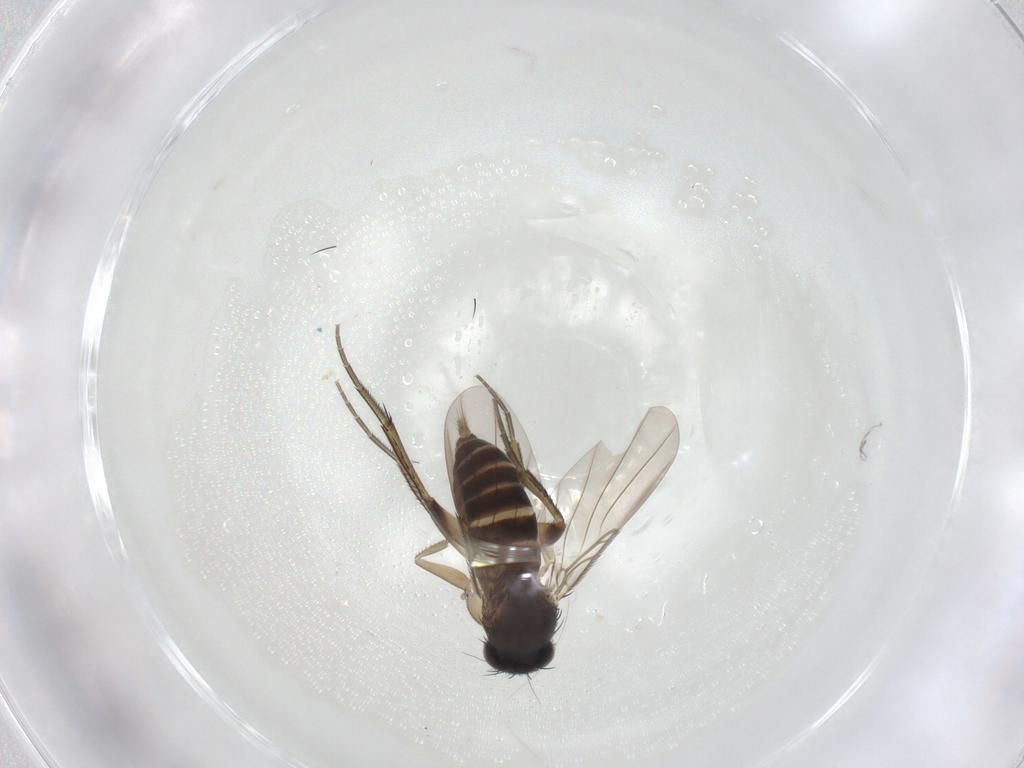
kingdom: Animalia
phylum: Arthropoda
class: Insecta
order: Diptera
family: Phoridae
